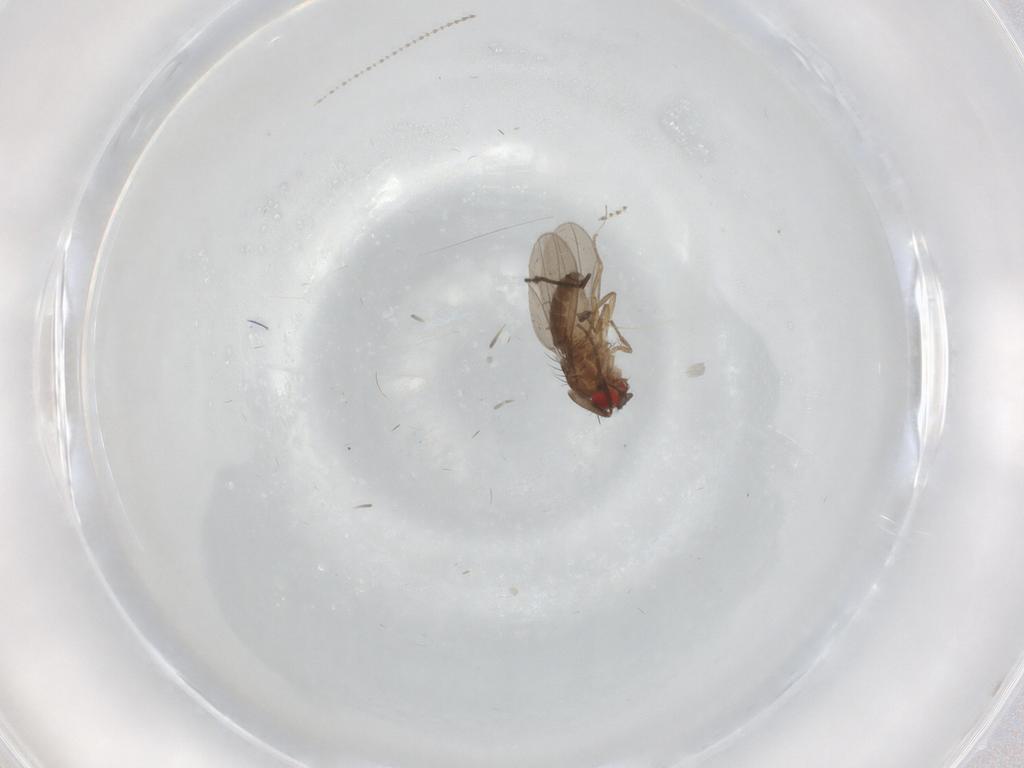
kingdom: Animalia
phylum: Arthropoda
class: Insecta
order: Diptera
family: Drosophilidae
